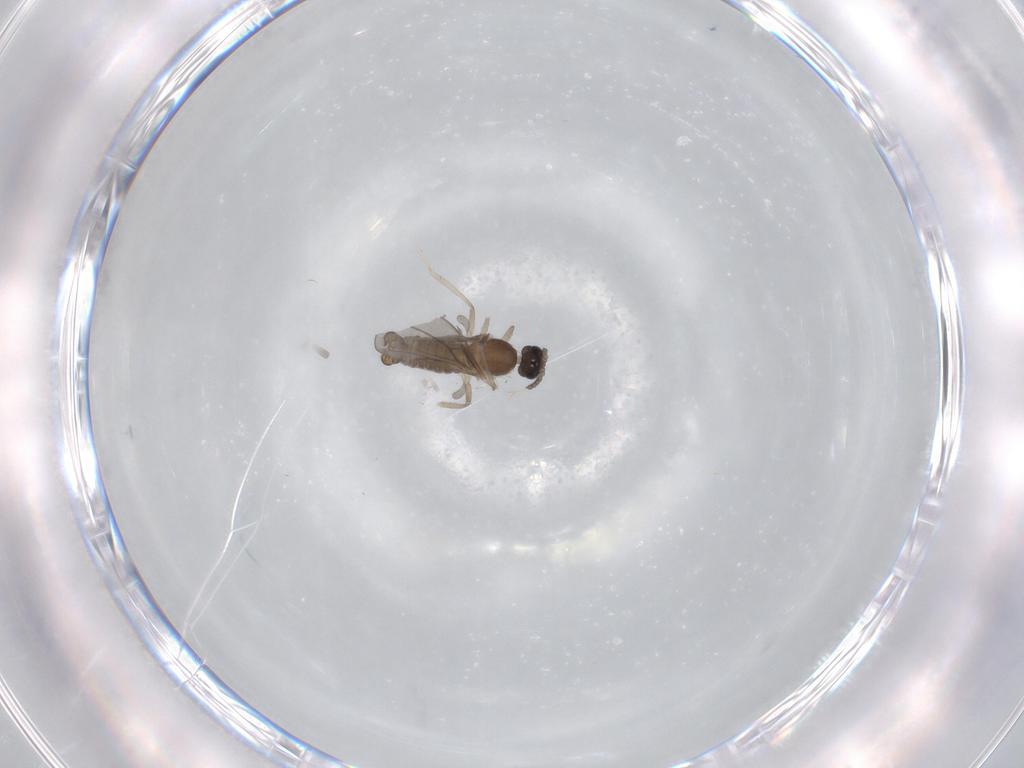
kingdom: Animalia
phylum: Arthropoda
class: Insecta
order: Diptera
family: Cecidomyiidae
